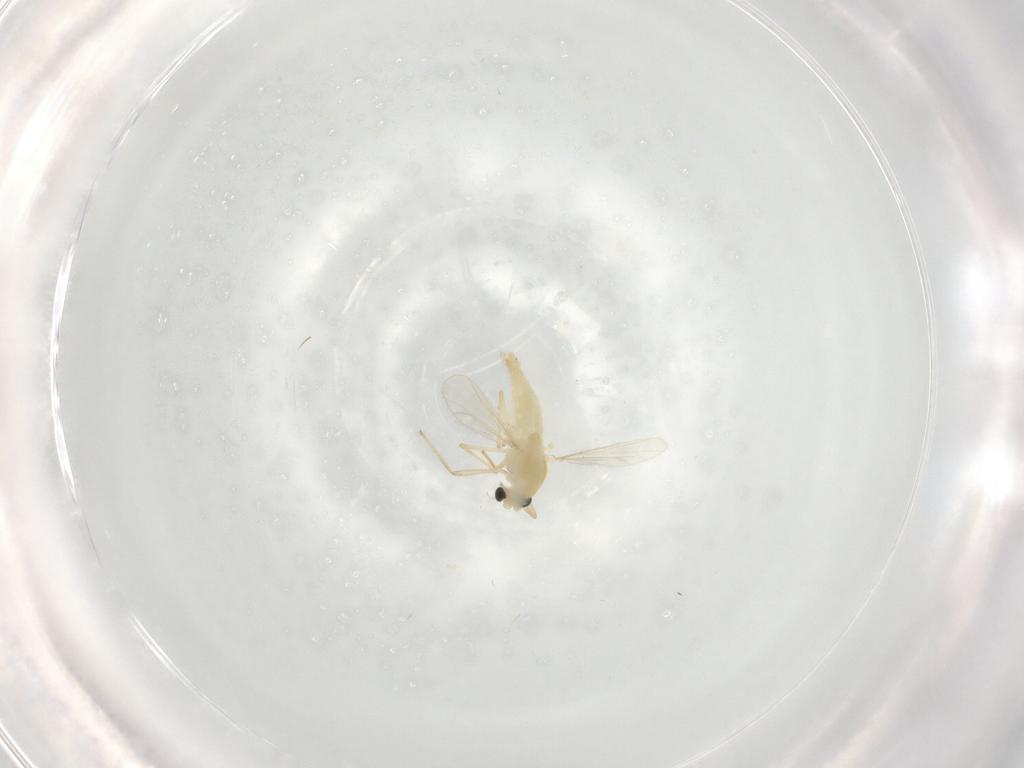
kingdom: Animalia
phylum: Arthropoda
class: Insecta
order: Diptera
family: Chironomidae
